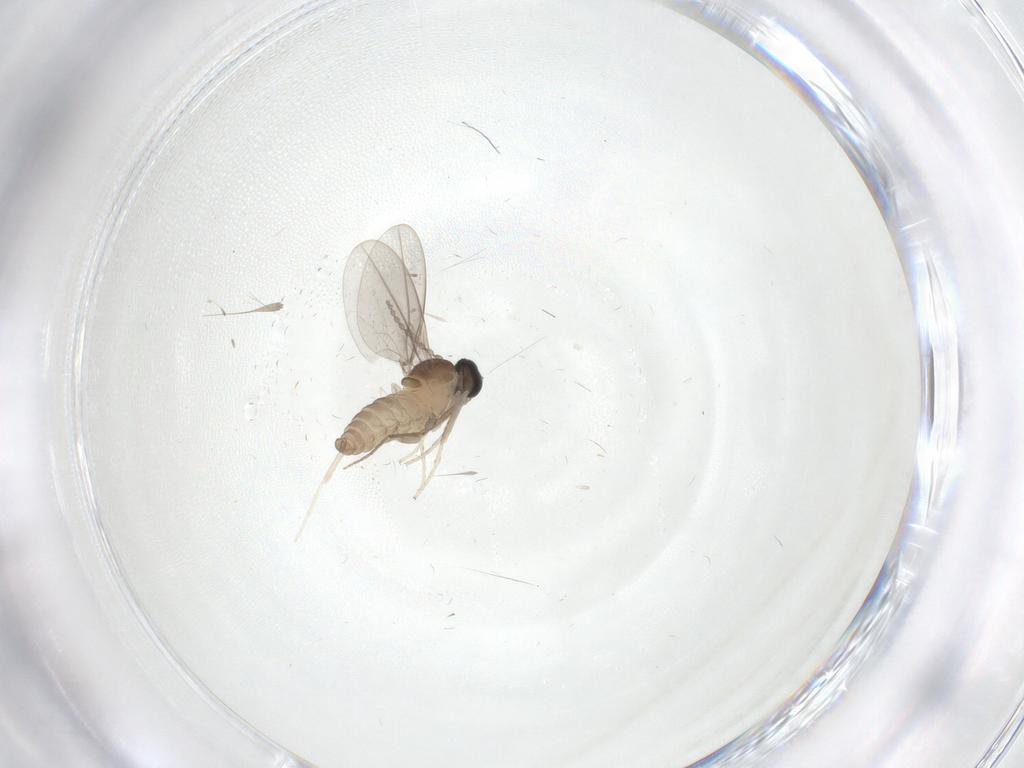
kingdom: Animalia
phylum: Arthropoda
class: Insecta
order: Diptera
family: Cecidomyiidae
